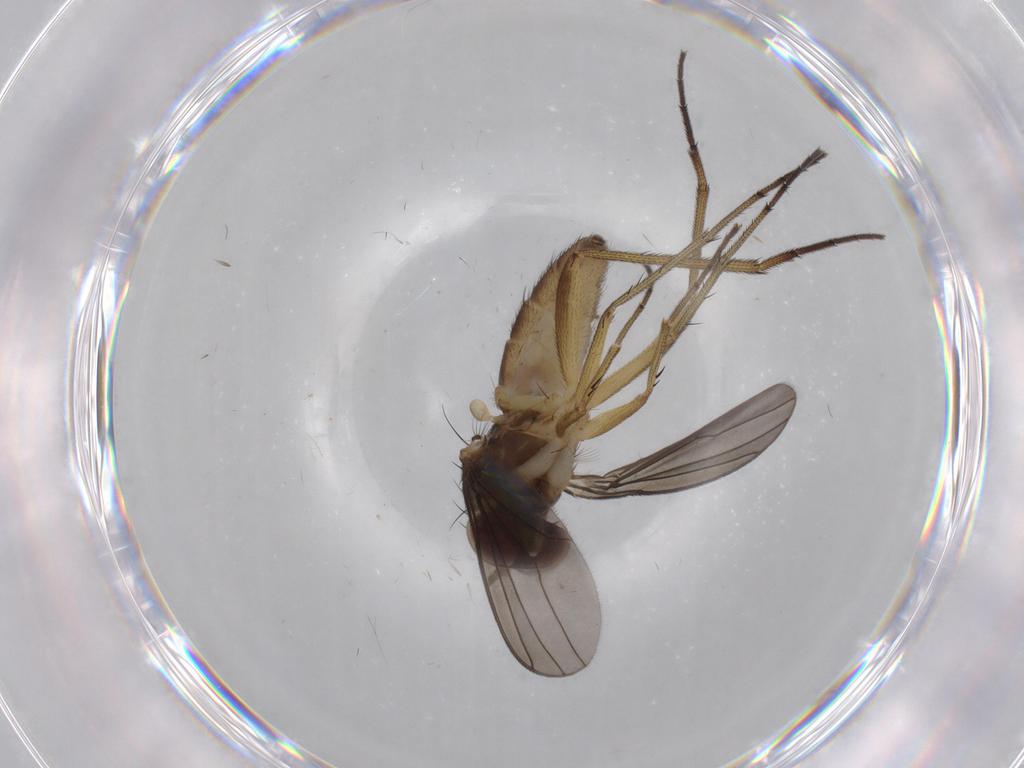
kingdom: Animalia
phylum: Arthropoda
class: Insecta
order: Diptera
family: Dolichopodidae
